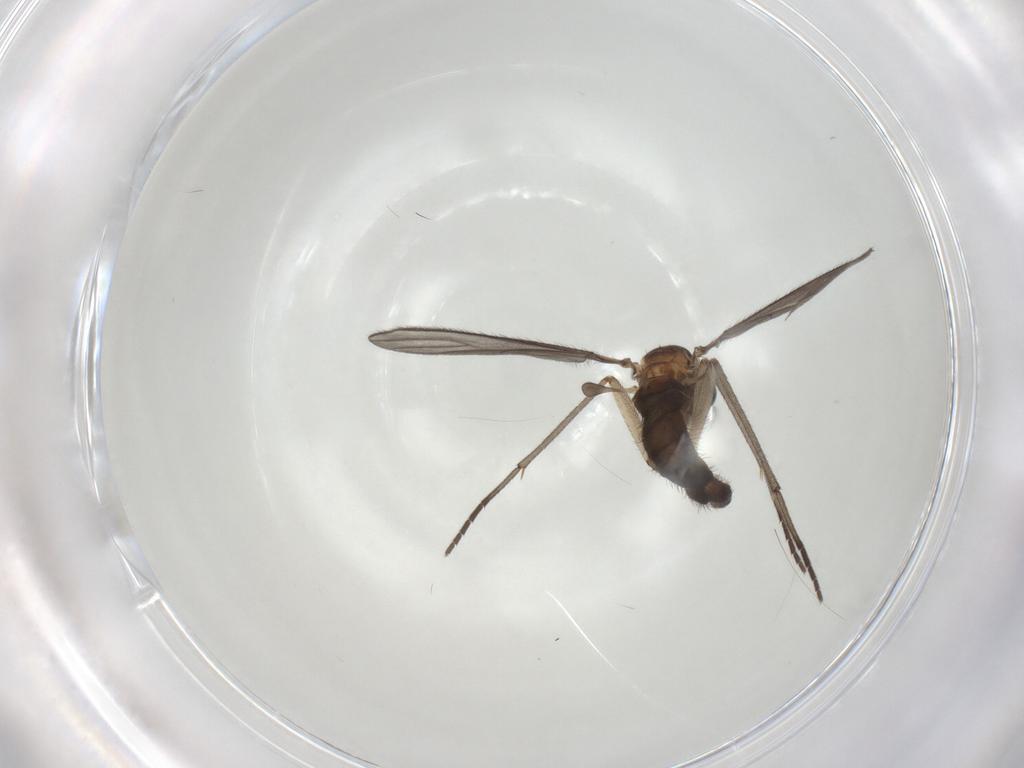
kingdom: Animalia
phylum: Arthropoda
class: Insecta
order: Diptera
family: Sciaridae
